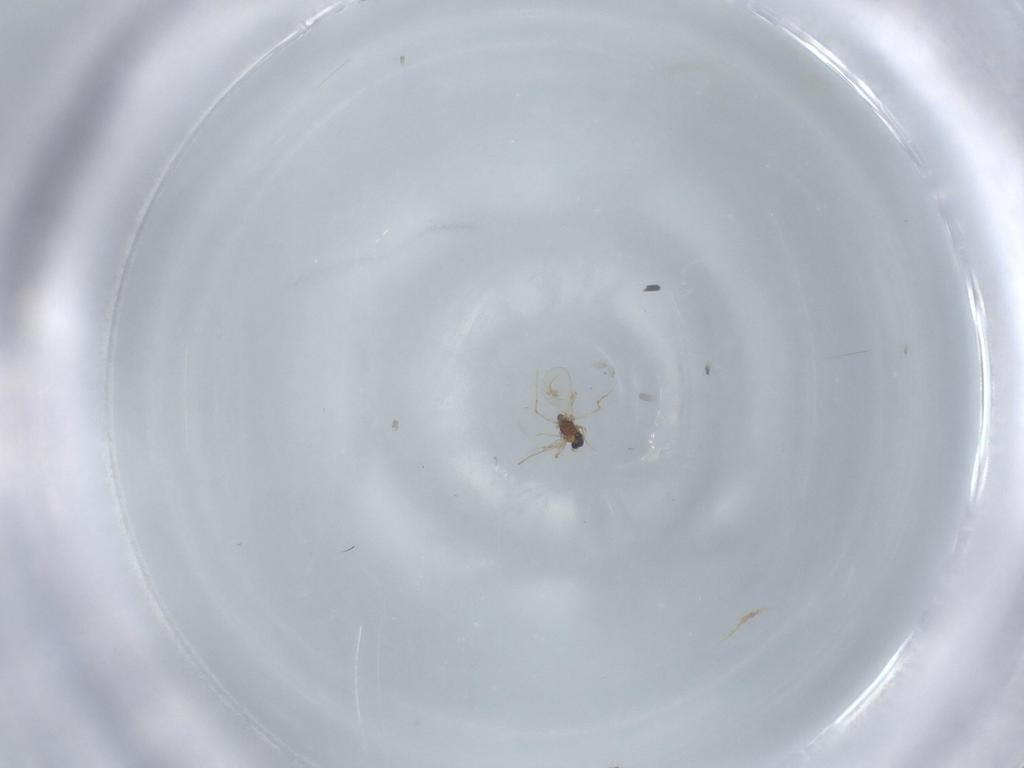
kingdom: Animalia
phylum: Arthropoda
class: Insecta
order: Diptera
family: Chironomidae
